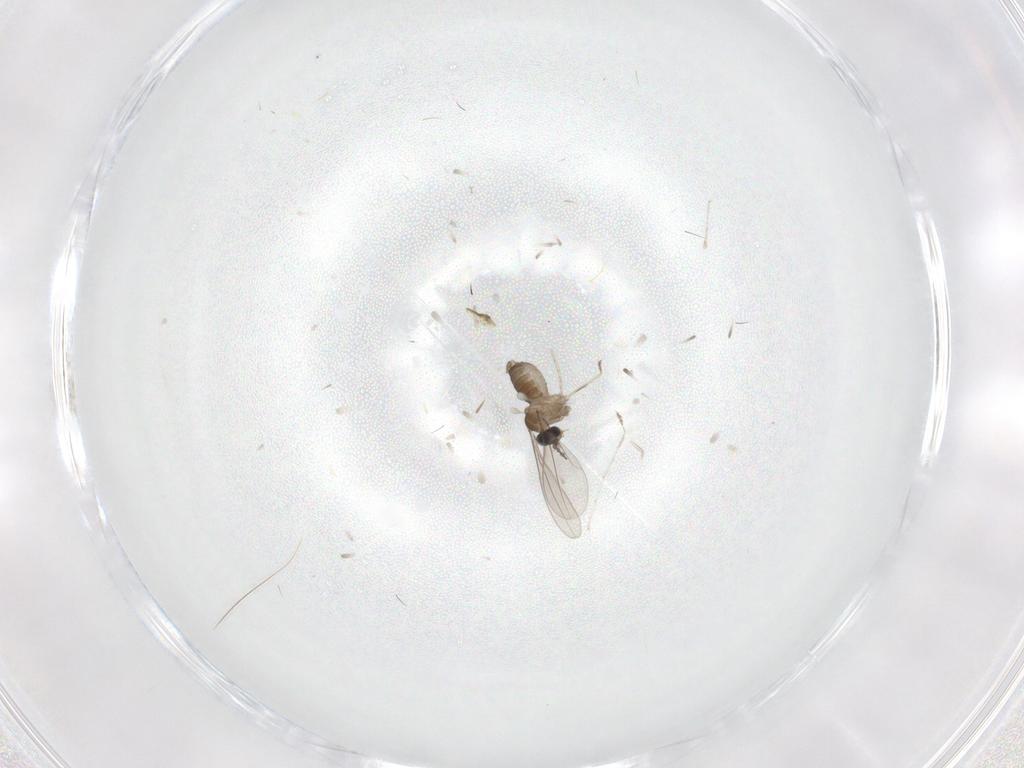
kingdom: Animalia
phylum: Arthropoda
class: Insecta
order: Diptera
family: Cecidomyiidae
